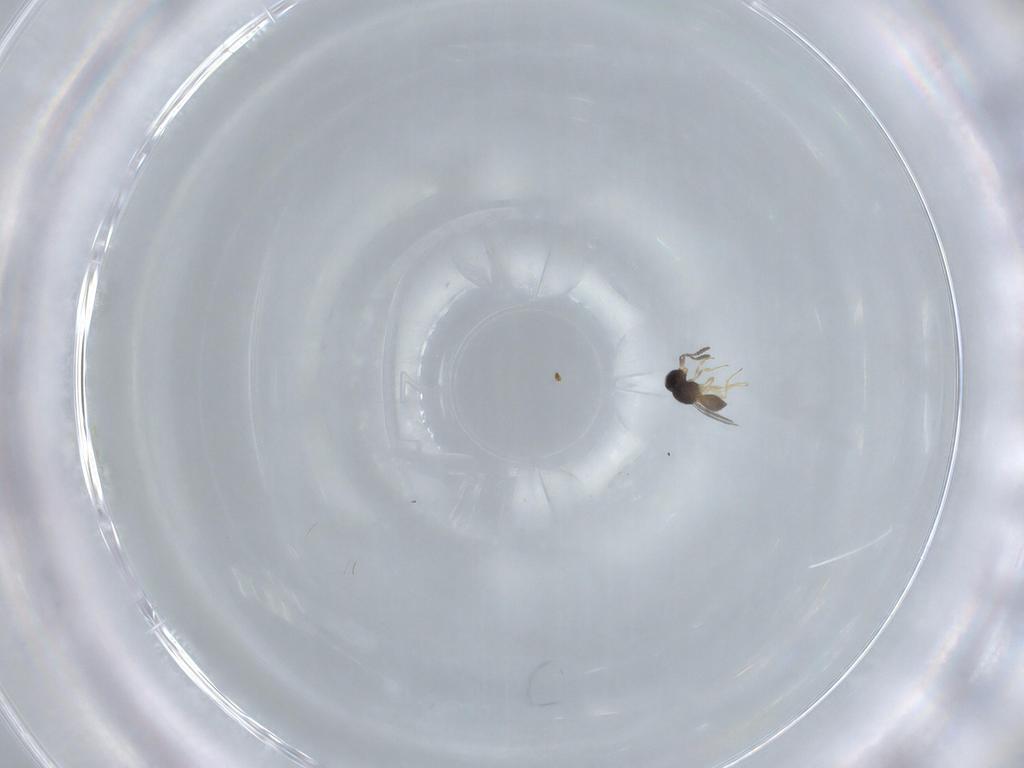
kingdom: Animalia
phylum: Arthropoda
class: Insecta
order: Hymenoptera
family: Scelionidae
